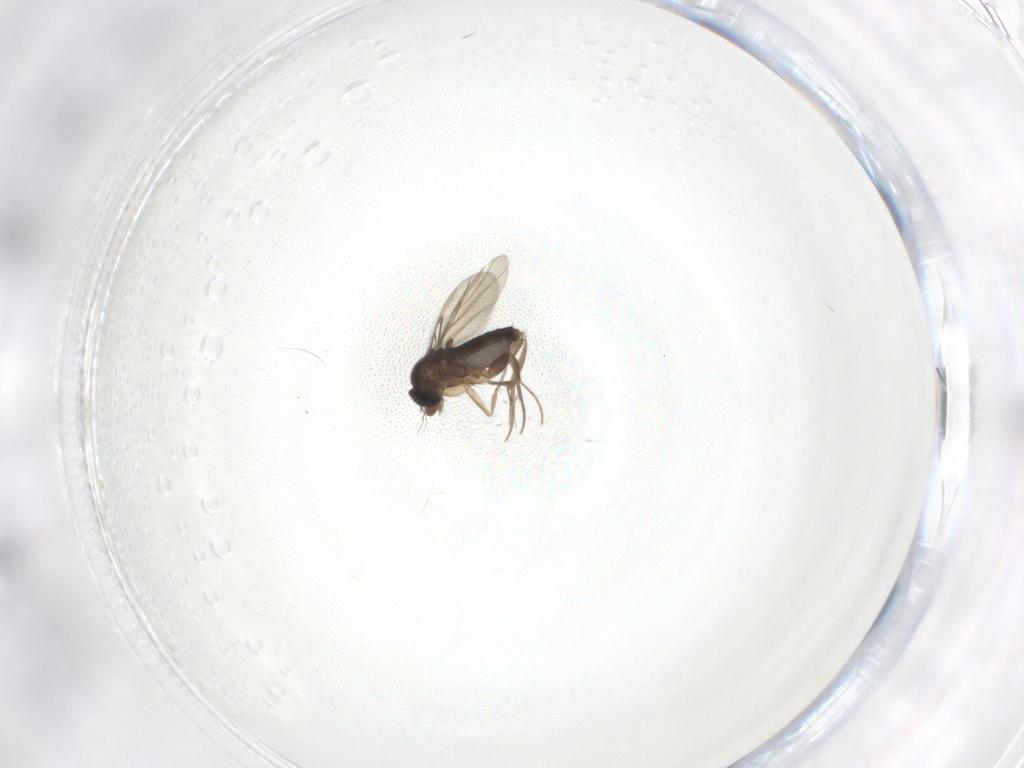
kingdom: Animalia
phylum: Arthropoda
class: Insecta
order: Diptera
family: Phoridae
